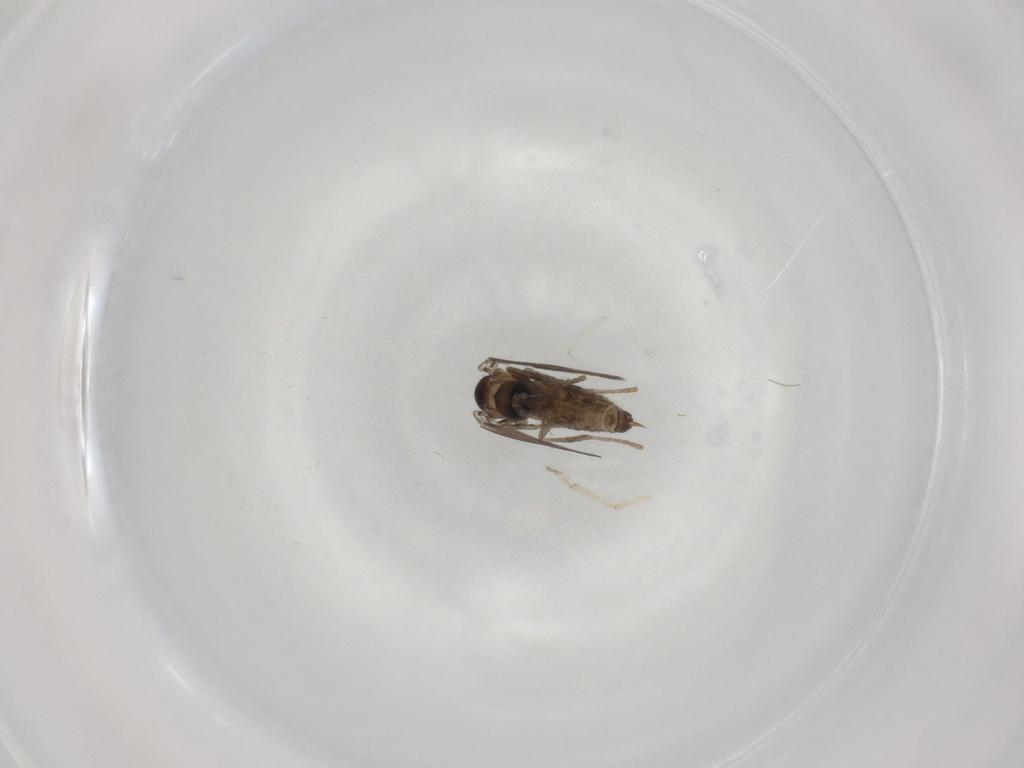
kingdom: Animalia
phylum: Arthropoda
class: Insecta
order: Diptera
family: Psychodidae
